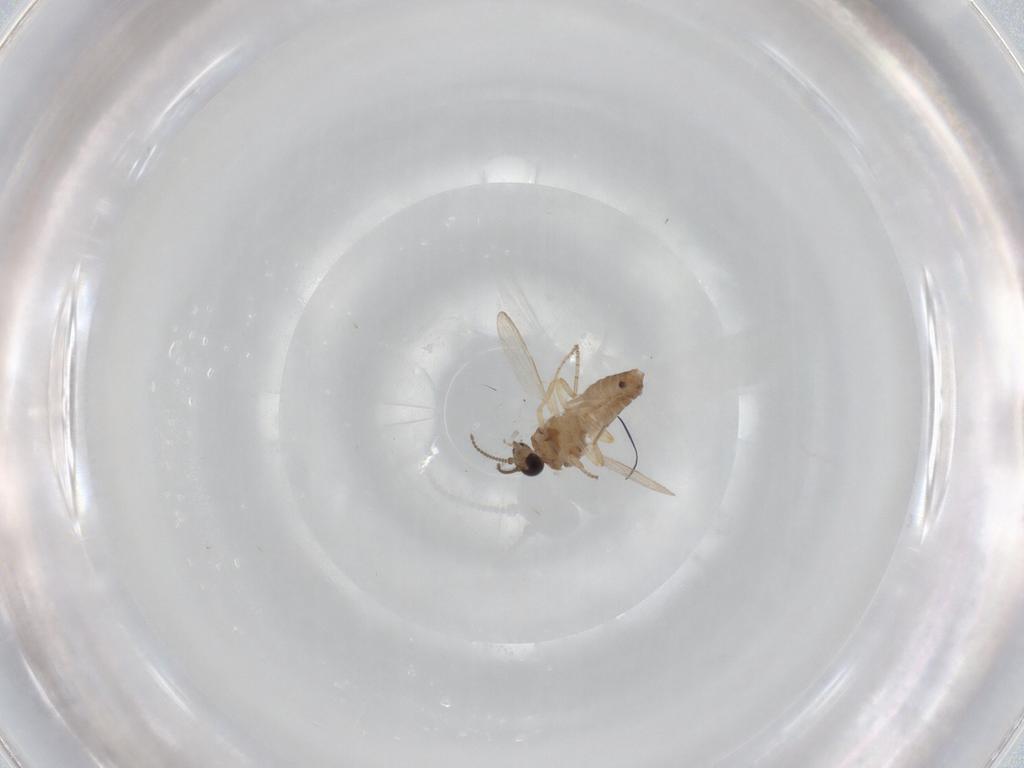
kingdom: Animalia
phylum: Arthropoda
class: Insecta
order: Diptera
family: Ceratopogonidae
